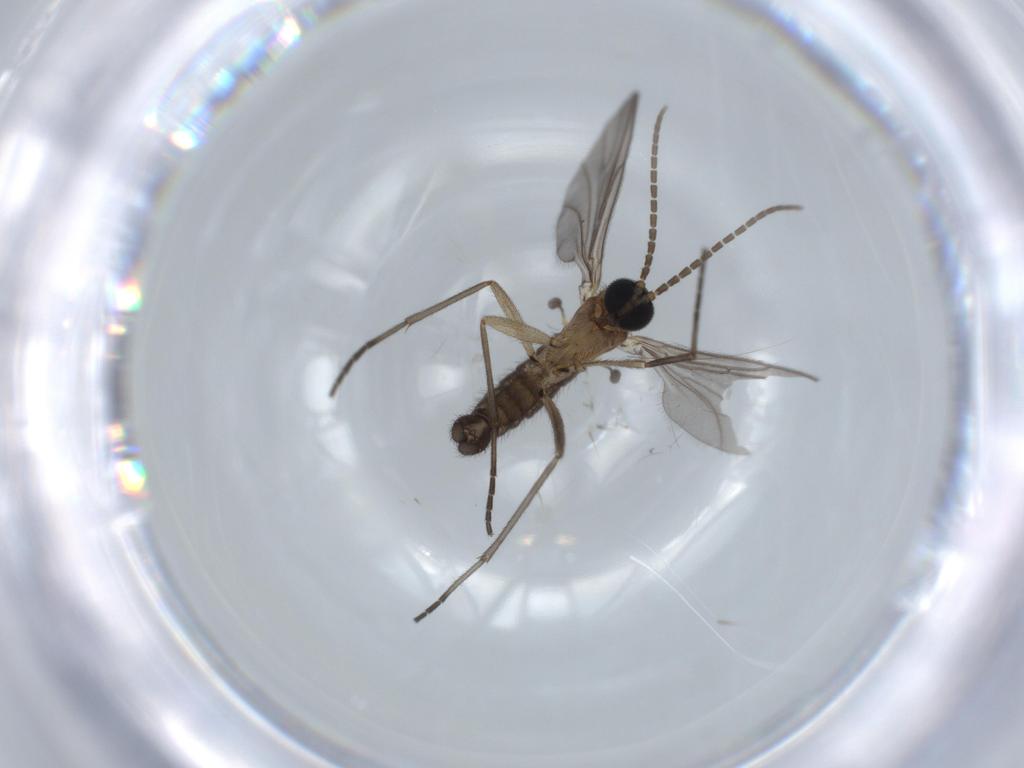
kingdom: Animalia
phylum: Arthropoda
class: Insecta
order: Diptera
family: Sciaridae
